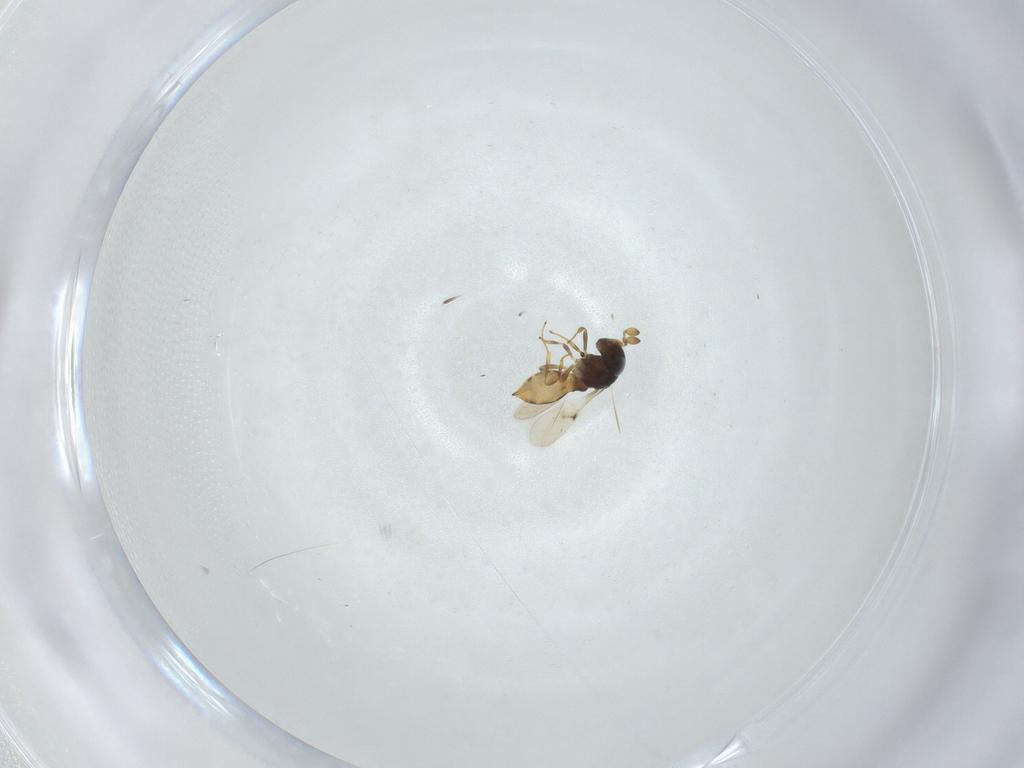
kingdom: Animalia
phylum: Arthropoda
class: Insecta
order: Hymenoptera
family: Scelionidae
